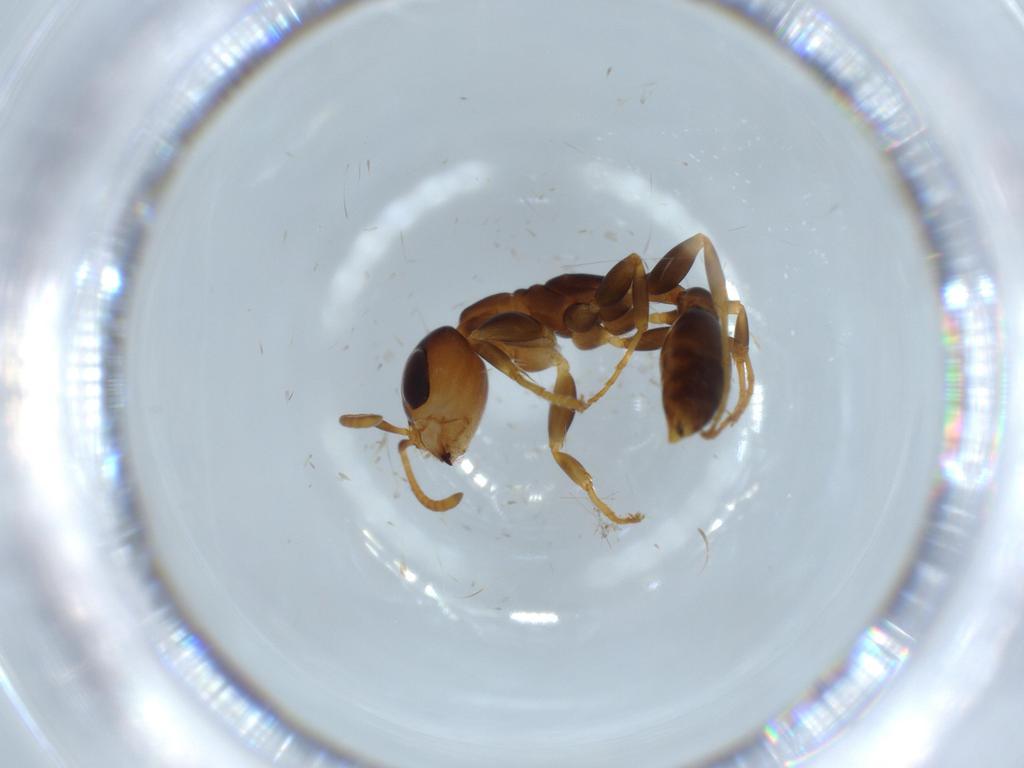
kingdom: Animalia
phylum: Arthropoda
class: Insecta
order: Hymenoptera
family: Formicidae
